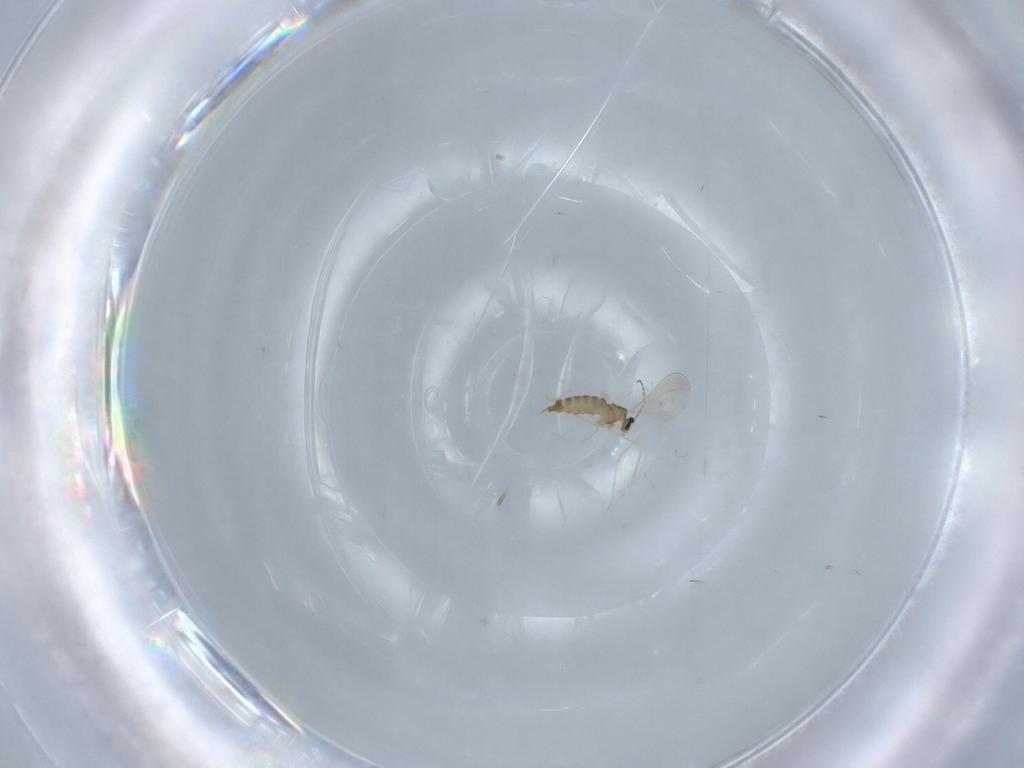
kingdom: Animalia
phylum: Arthropoda
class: Insecta
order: Diptera
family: Cecidomyiidae
